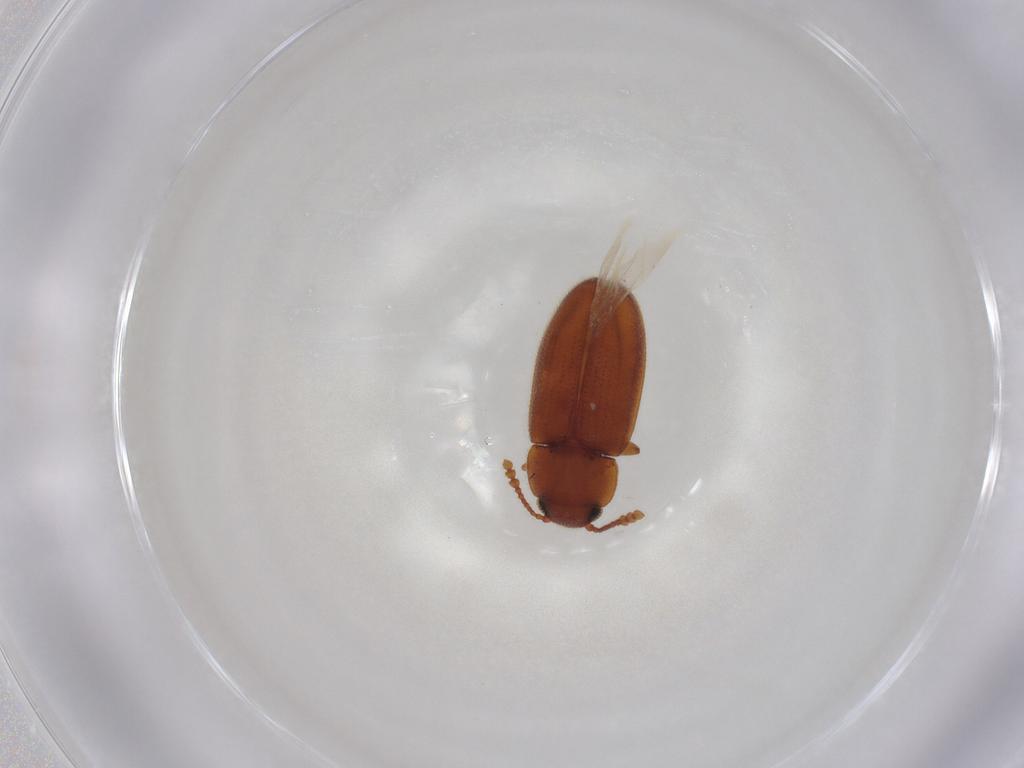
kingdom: Animalia
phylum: Arthropoda
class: Insecta
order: Coleoptera
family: Erotylidae
